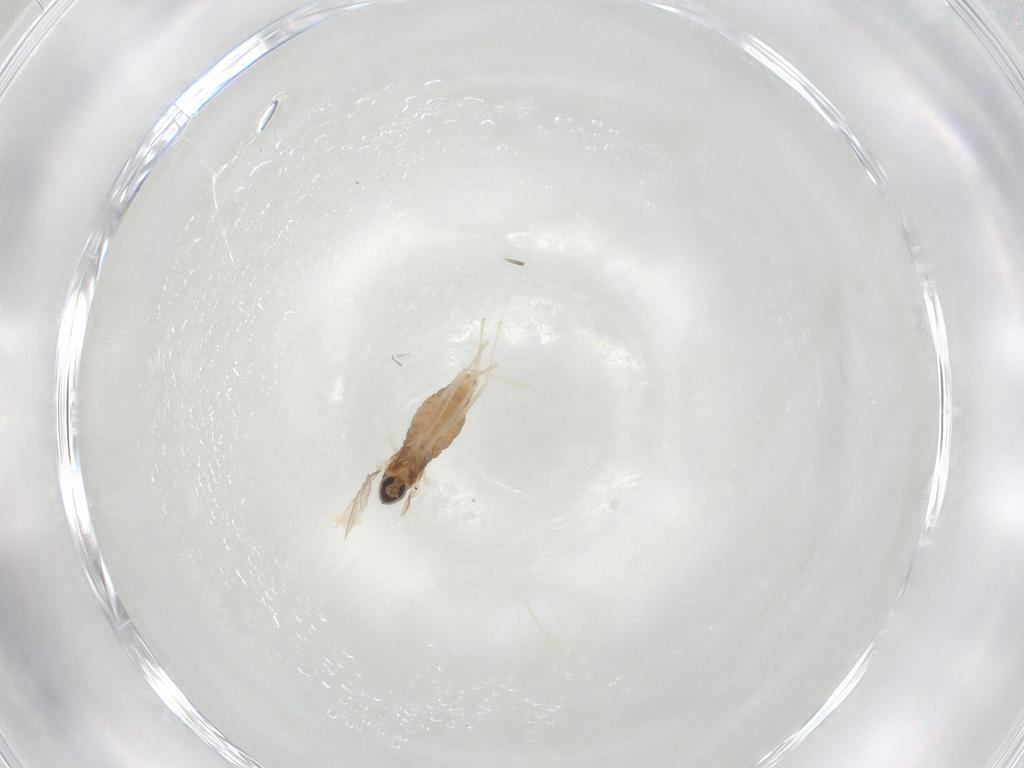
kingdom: Animalia
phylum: Arthropoda
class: Insecta
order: Diptera
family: Cecidomyiidae
